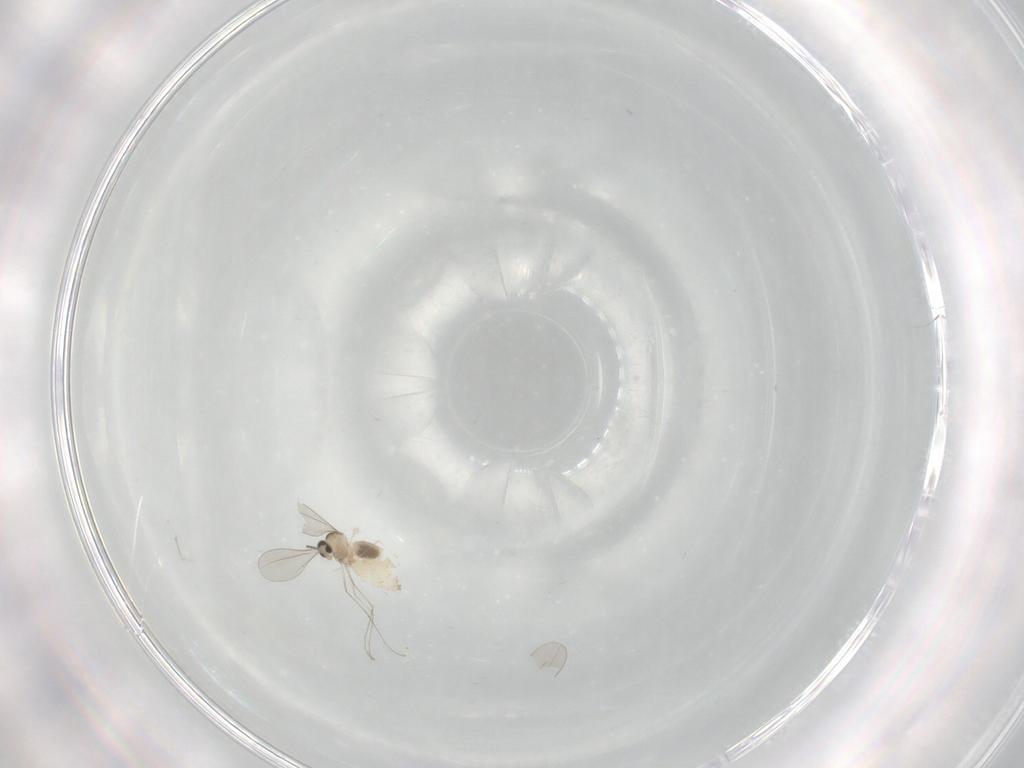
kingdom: Animalia
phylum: Arthropoda
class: Insecta
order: Diptera
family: Cecidomyiidae
